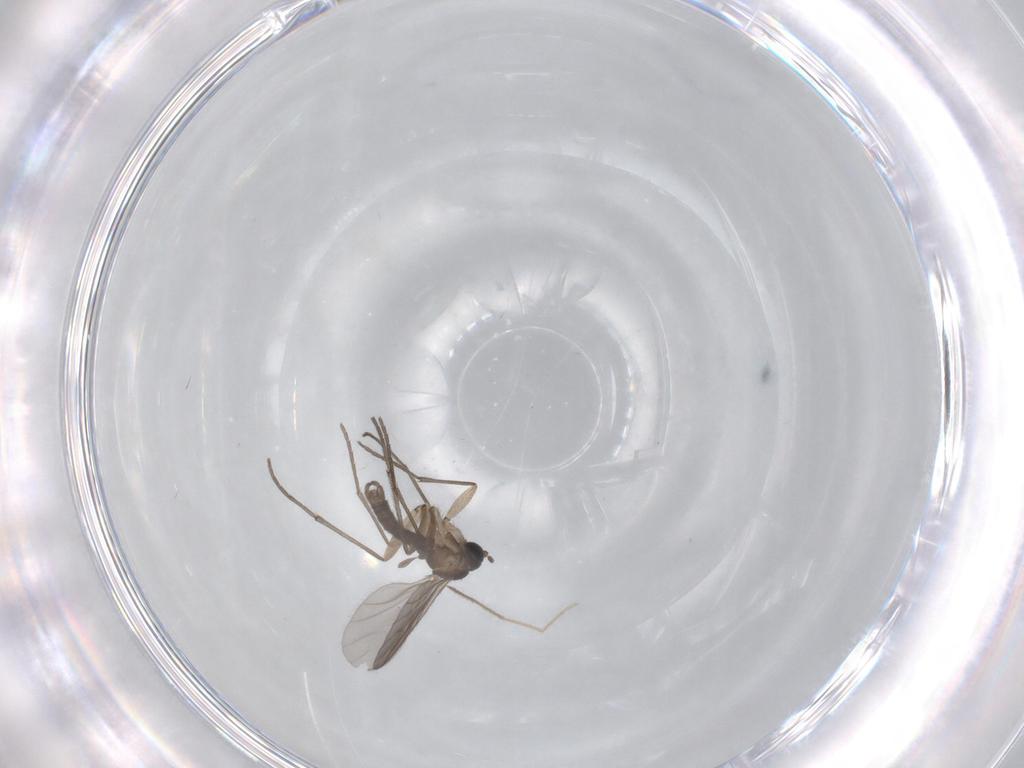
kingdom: Animalia
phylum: Arthropoda
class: Insecta
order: Diptera
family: Sciaridae
